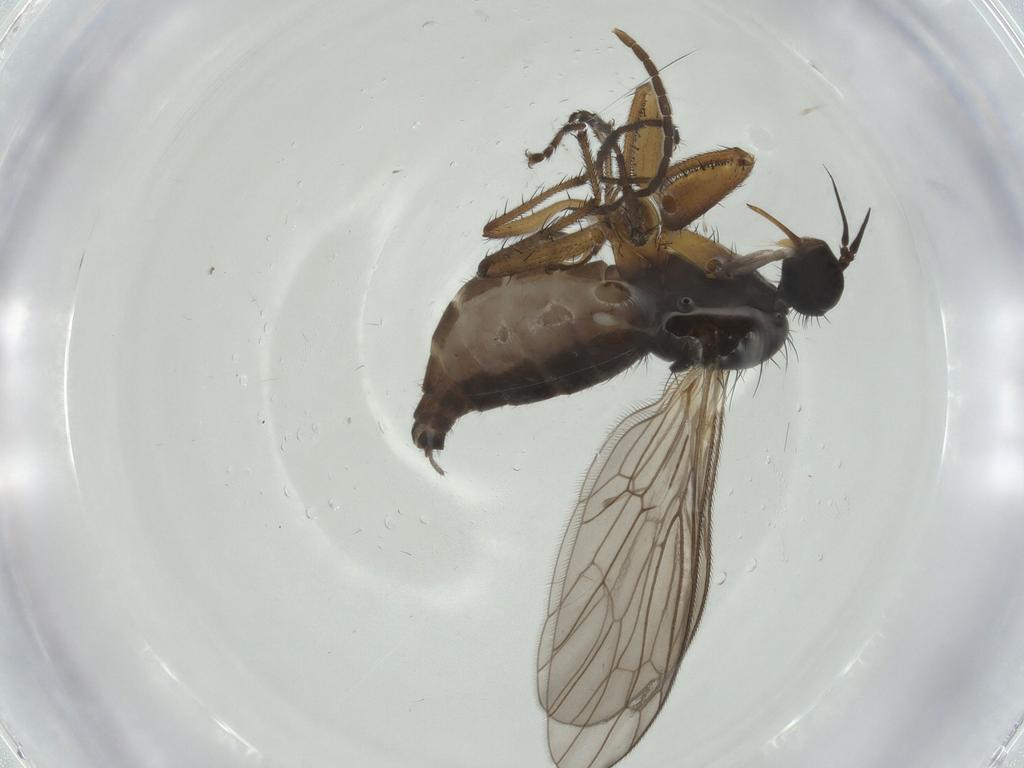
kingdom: Animalia
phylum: Arthropoda
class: Insecta
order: Diptera
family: Empididae
